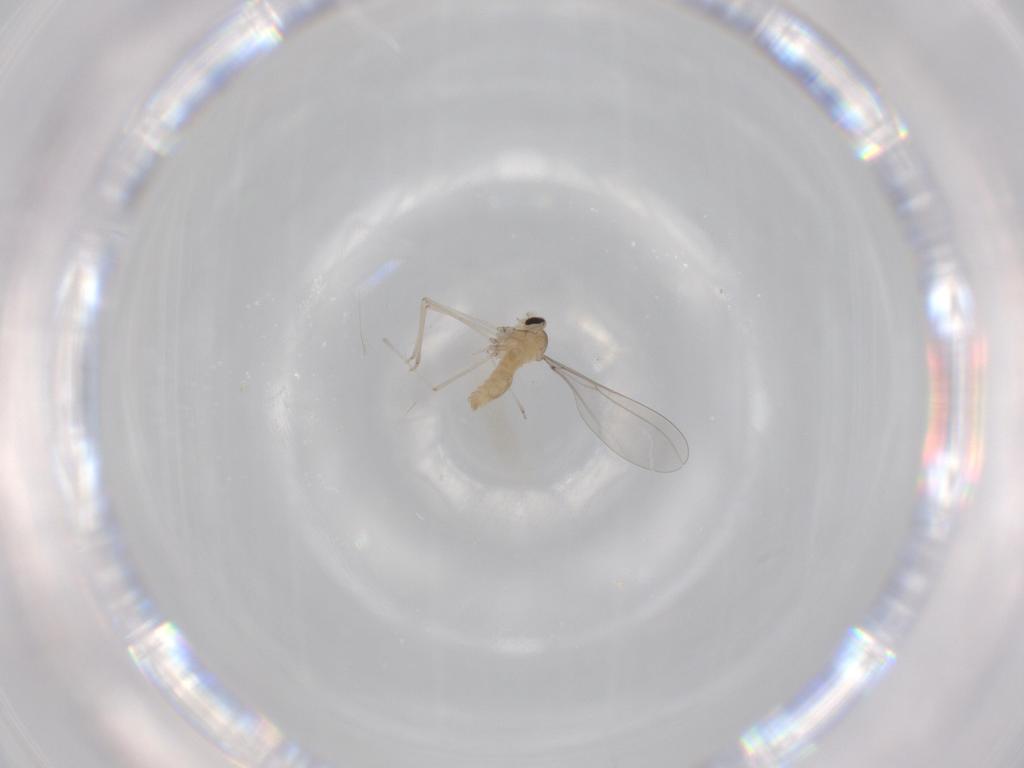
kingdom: Animalia
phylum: Arthropoda
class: Insecta
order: Diptera
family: Cecidomyiidae
